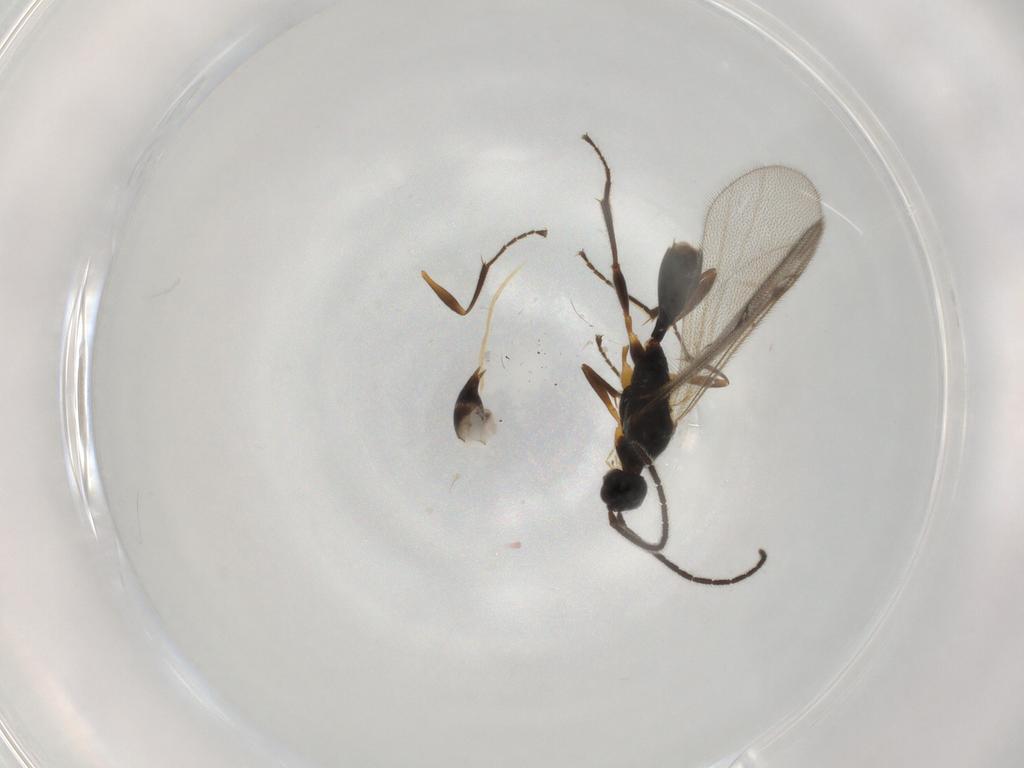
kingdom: Animalia
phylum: Arthropoda
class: Insecta
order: Hymenoptera
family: Proctotrupidae
